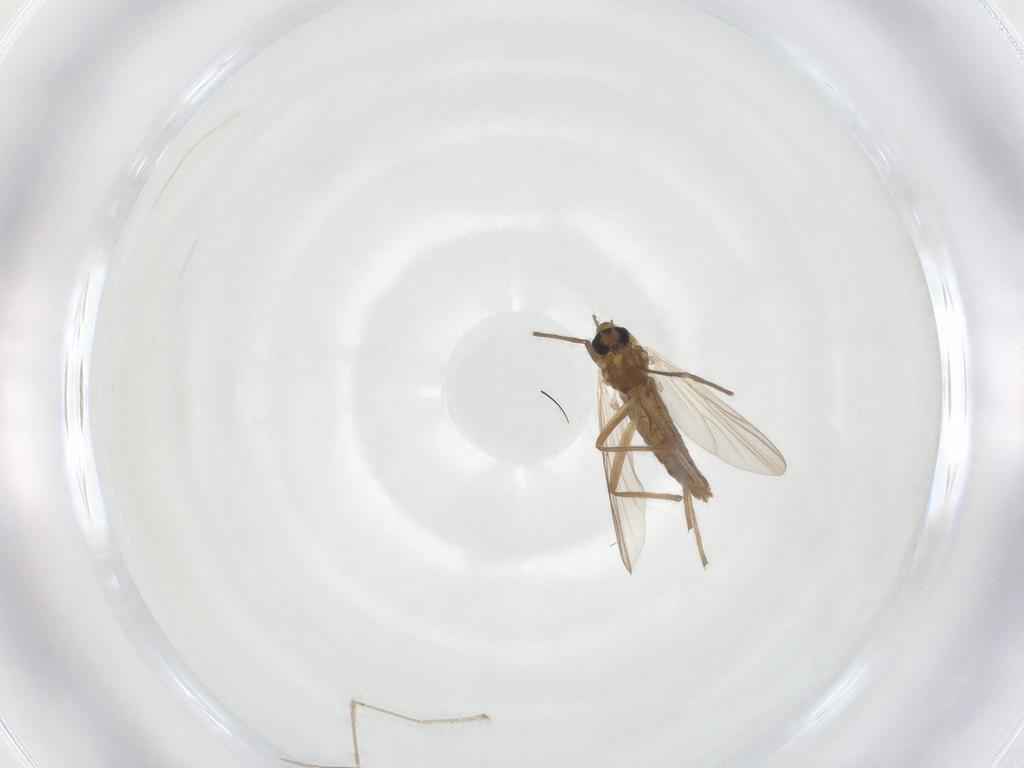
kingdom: Animalia
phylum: Arthropoda
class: Insecta
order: Diptera
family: Chironomidae
